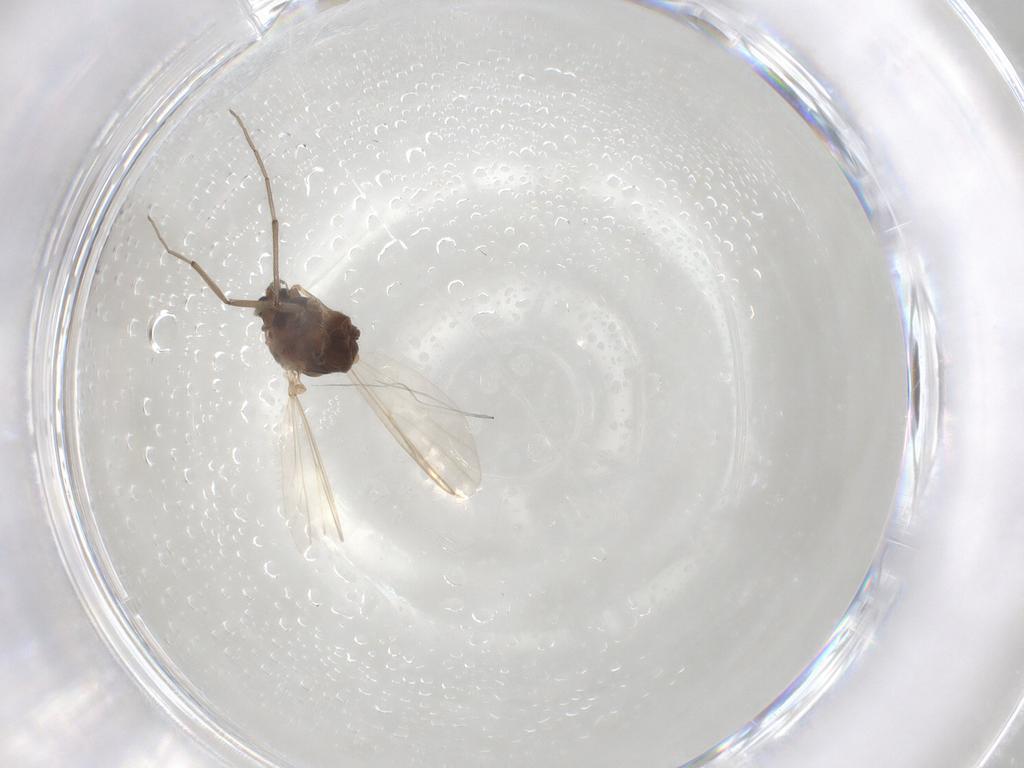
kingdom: Animalia
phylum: Arthropoda
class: Insecta
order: Diptera
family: Chironomidae
